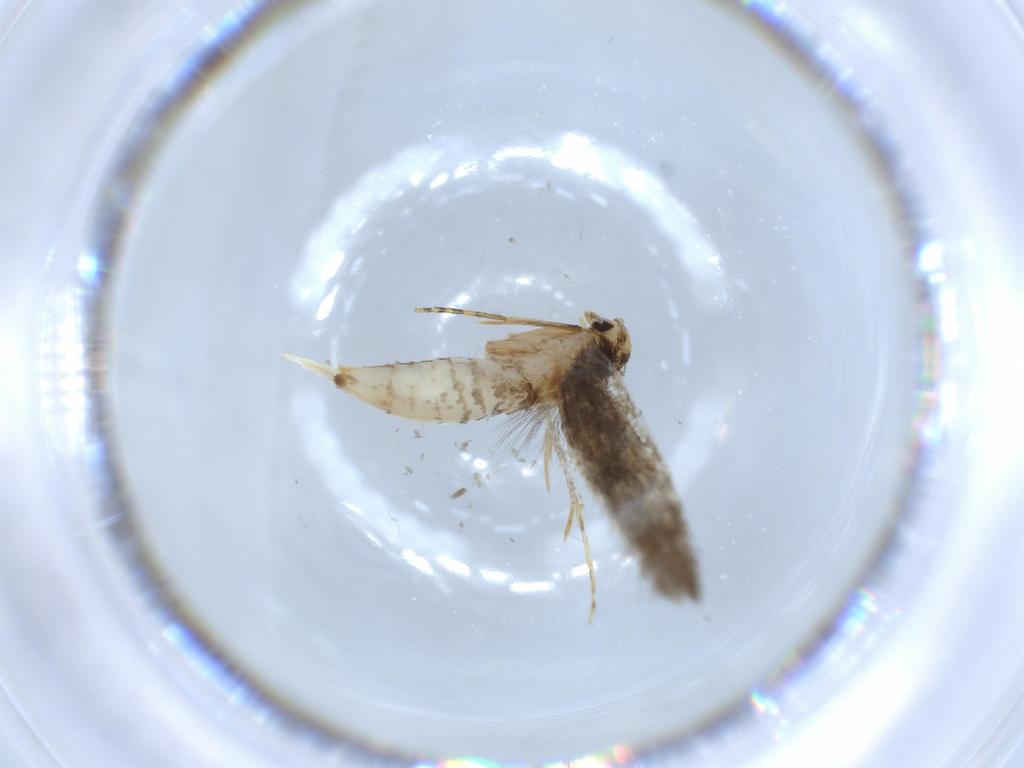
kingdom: Animalia
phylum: Arthropoda
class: Insecta
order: Lepidoptera
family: Tineidae
